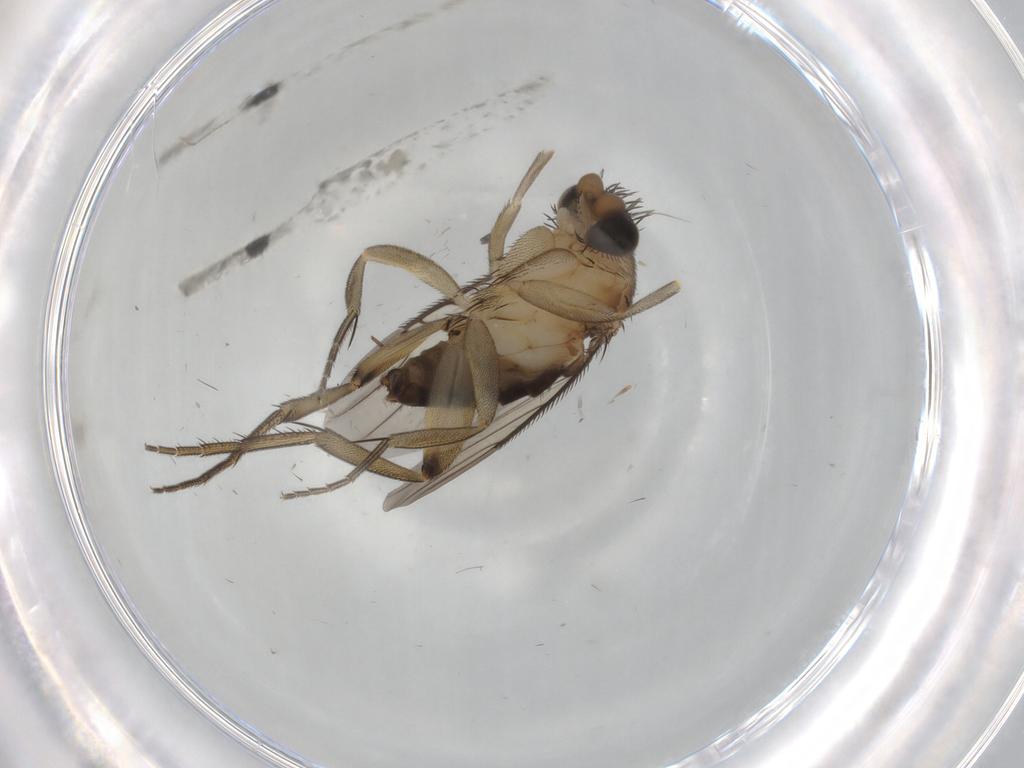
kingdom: Animalia
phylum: Arthropoda
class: Insecta
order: Diptera
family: Phoridae
